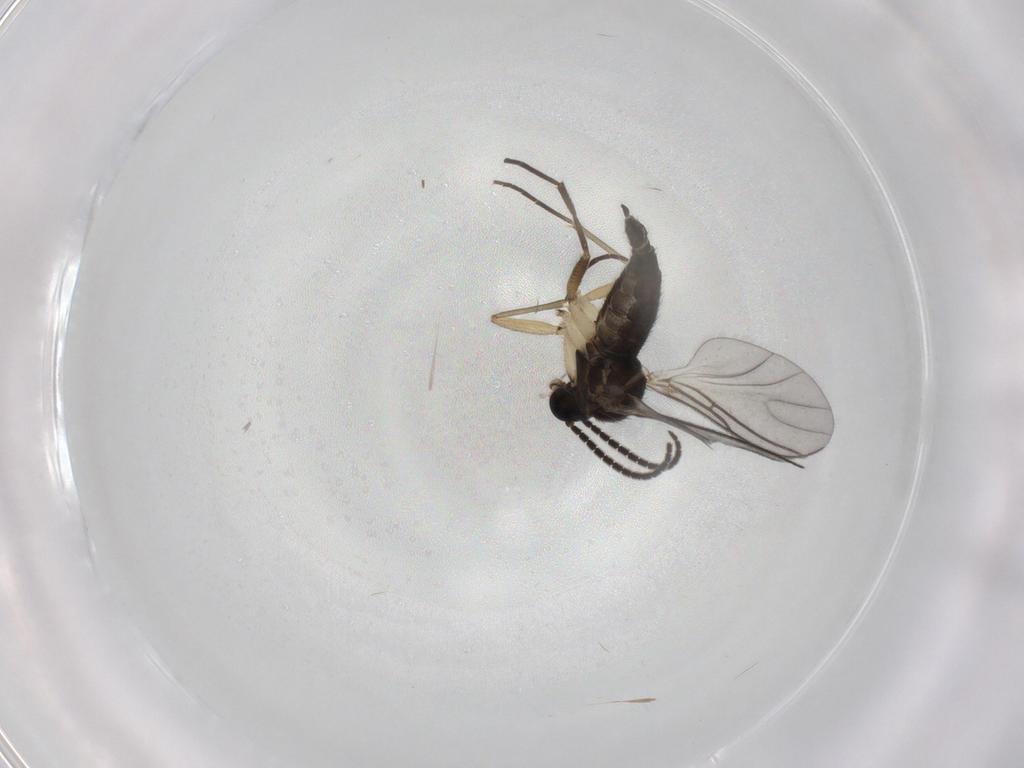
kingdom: Animalia
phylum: Arthropoda
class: Insecta
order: Diptera
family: Sciaridae
